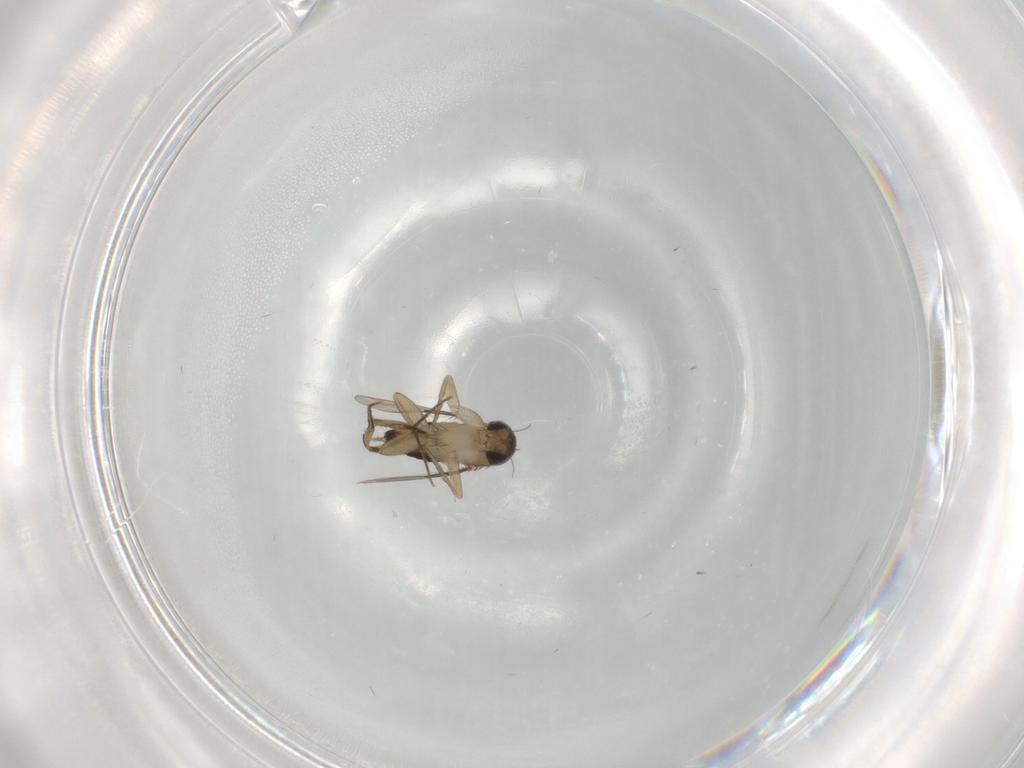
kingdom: Animalia
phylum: Arthropoda
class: Insecta
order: Diptera
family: Phoridae
